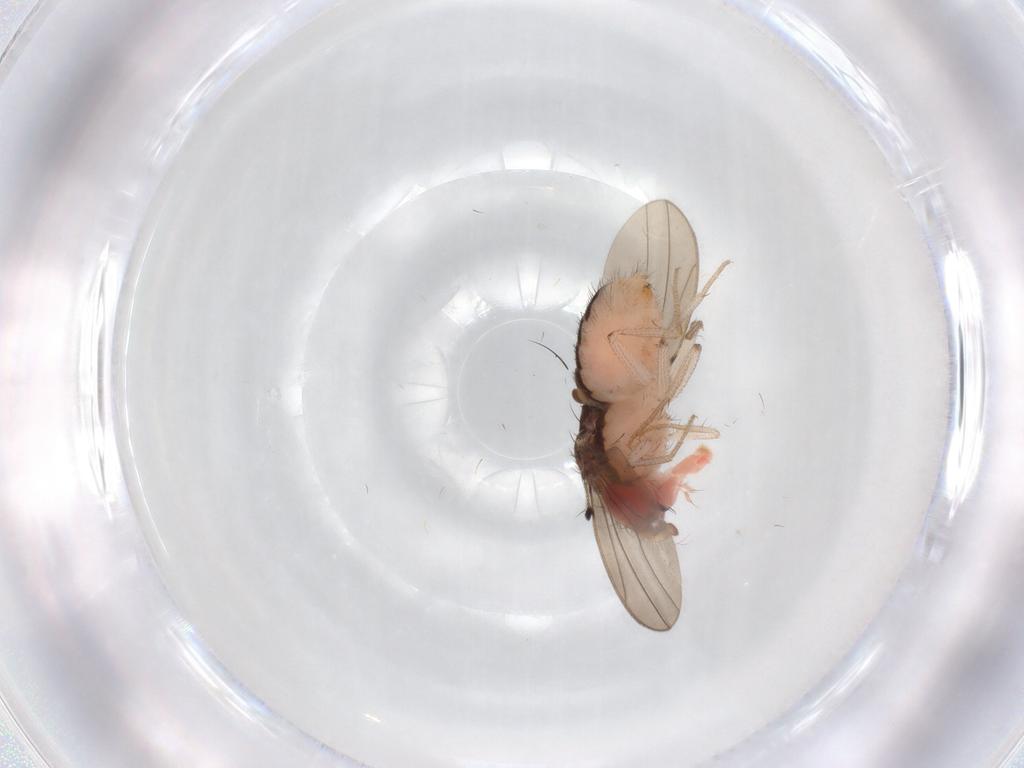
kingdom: Animalia
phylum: Arthropoda
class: Insecta
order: Diptera
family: Drosophilidae
